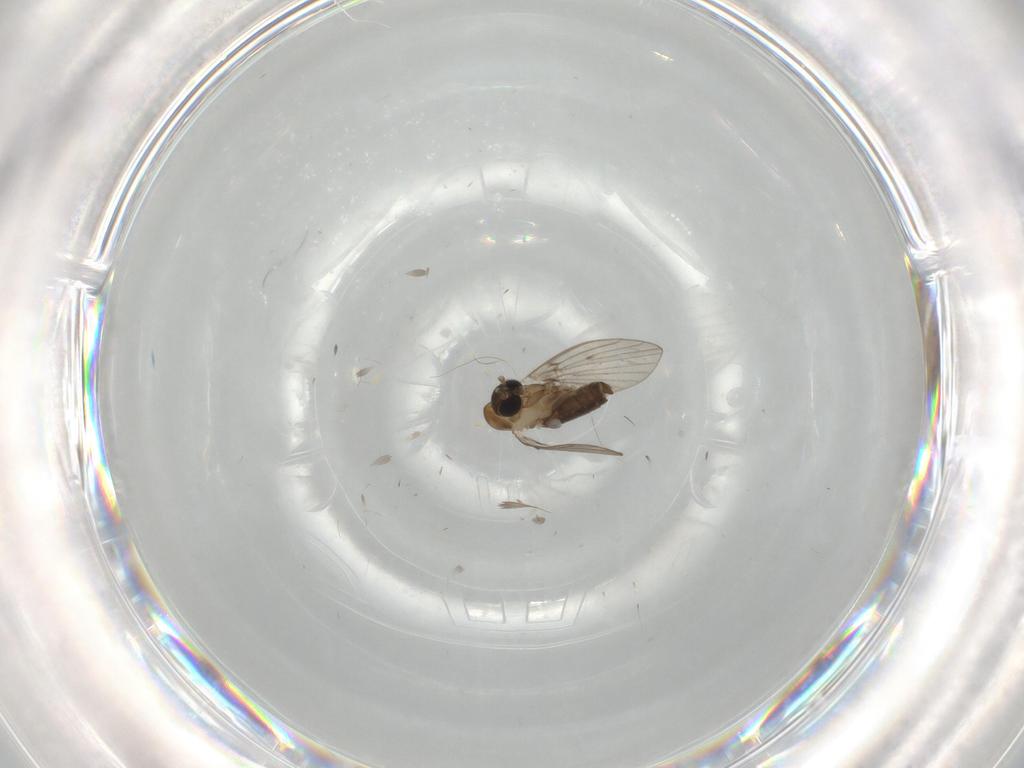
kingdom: Animalia
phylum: Arthropoda
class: Insecta
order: Diptera
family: Psychodidae
